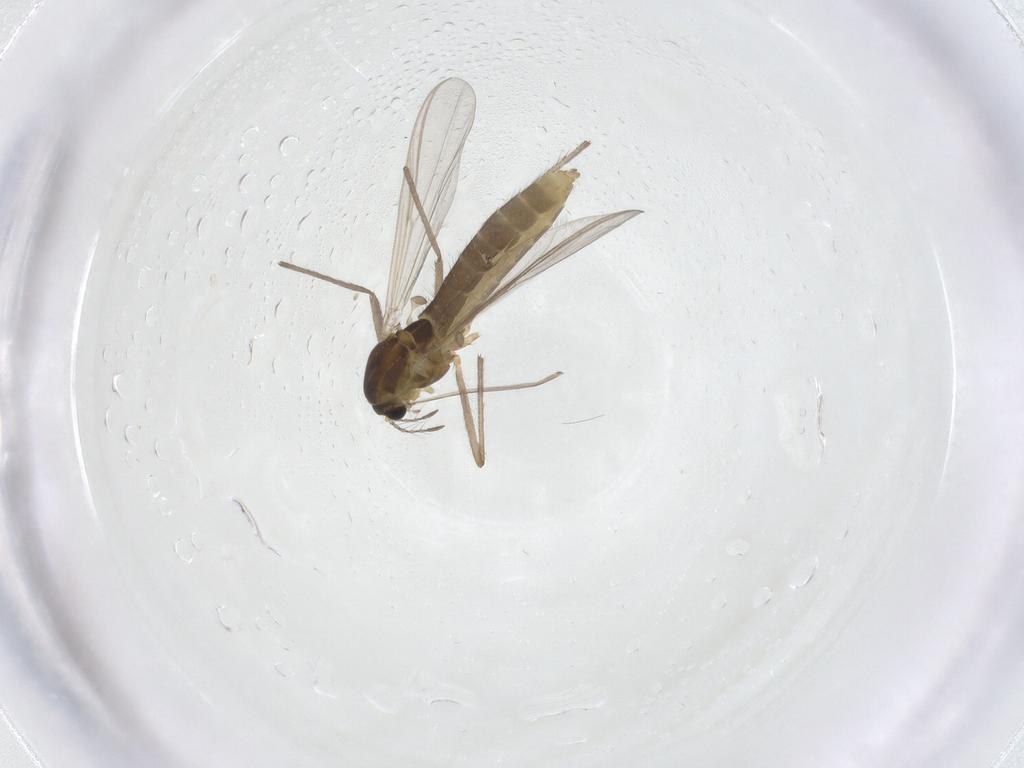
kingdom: Animalia
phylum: Arthropoda
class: Insecta
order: Diptera
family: Chironomidae
